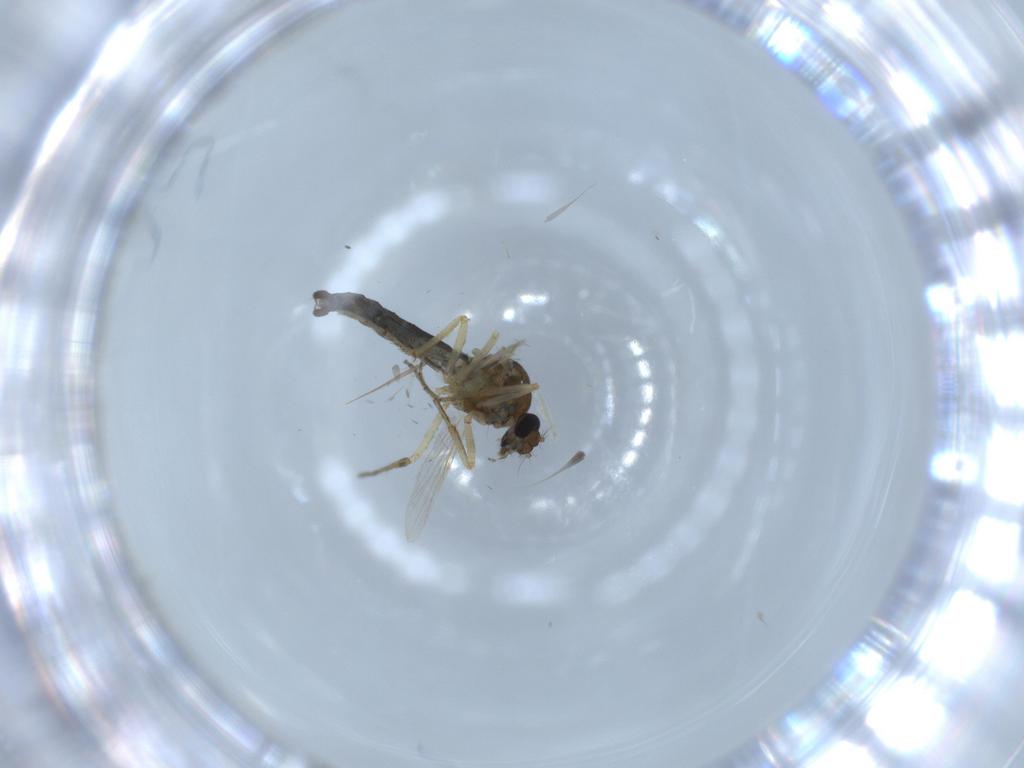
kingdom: Animalia
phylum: Arthropoda
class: Insecta
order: Diptera
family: Ceratopogonidae
